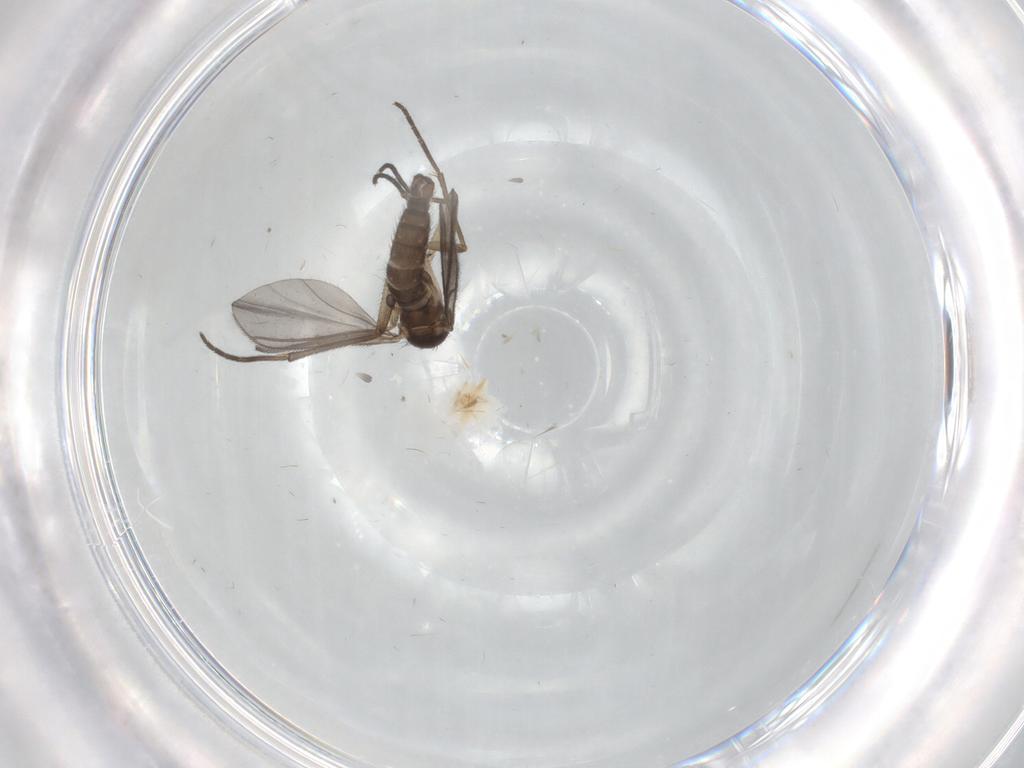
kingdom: Animalia
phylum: Arthropoda
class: Insecta
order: Diptera
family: Sciaridae
